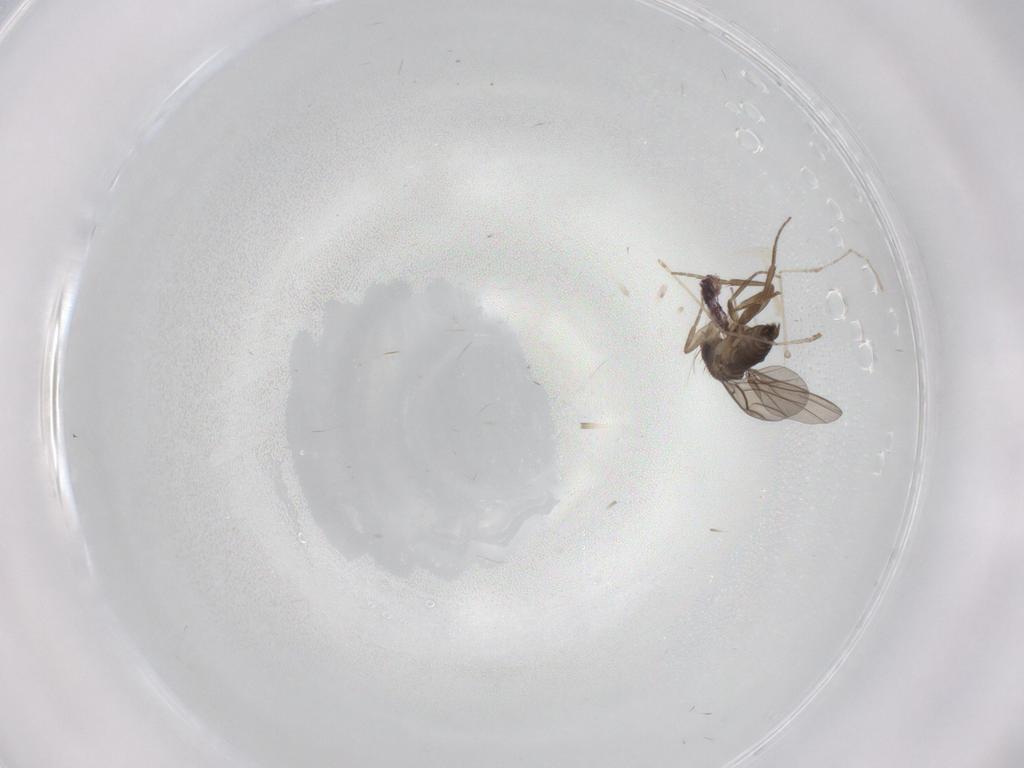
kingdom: Animalia
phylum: Arthropoda
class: Insecta
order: Diptera
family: Phoridae
